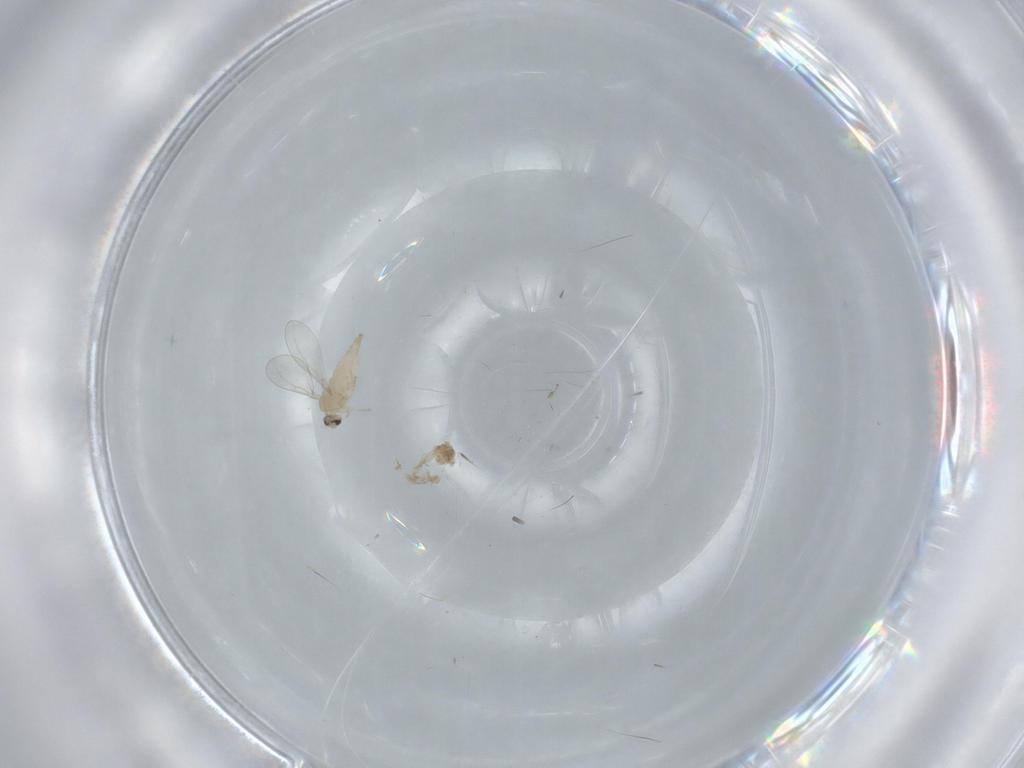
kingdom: Animalia
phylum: Arthropoda
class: Insecta
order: Diptera
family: Cecidomyiidae
